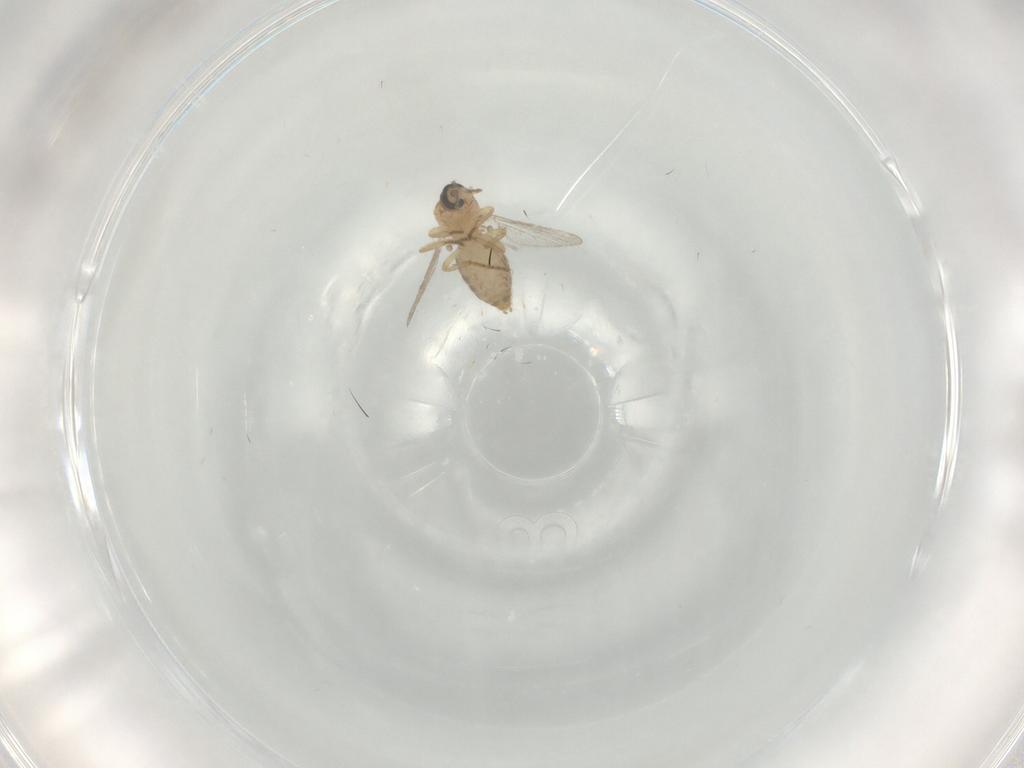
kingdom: Animalia
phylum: Arthropoda
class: Insecta
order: Diptera
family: Ceratopogonidae
